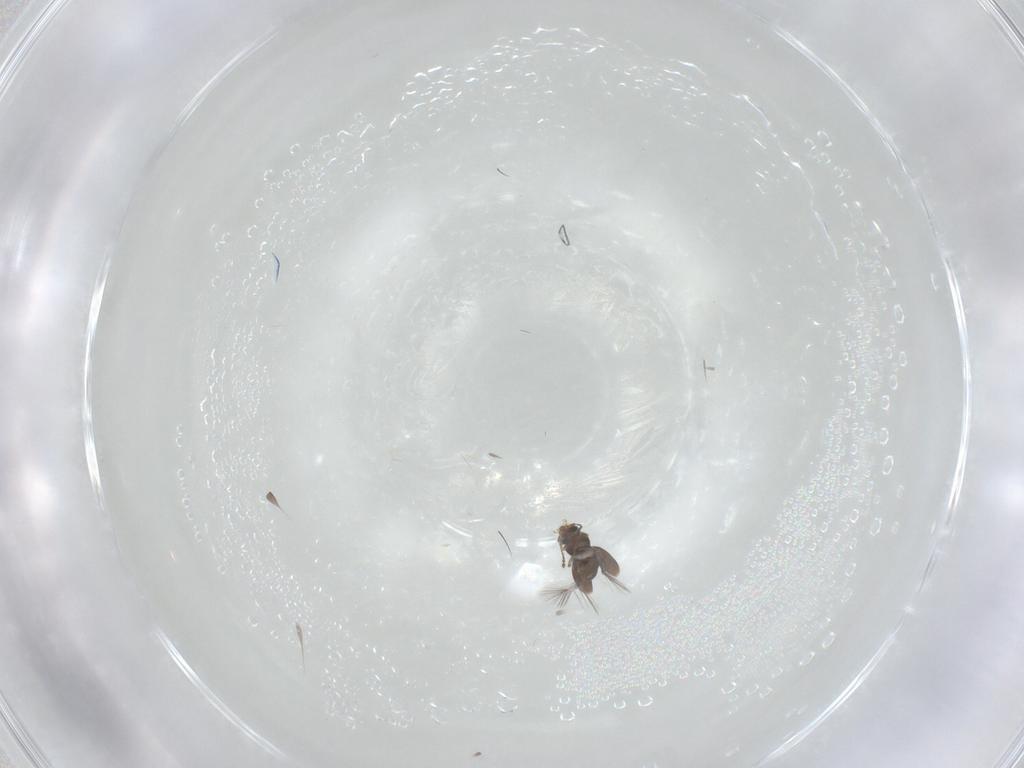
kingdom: Animalia
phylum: Arthropoda
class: Insecta
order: Coleoptera
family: Ptiliidae
